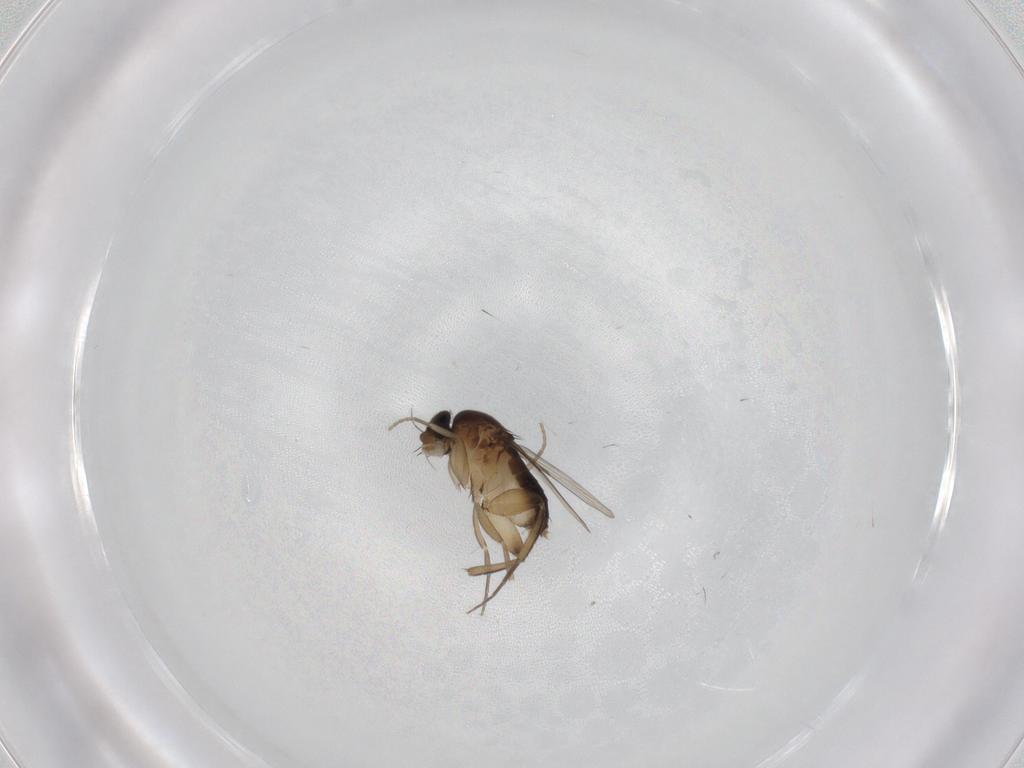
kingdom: Animalia
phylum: Arthropoda
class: Insecta
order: Diptera
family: Phoridae
